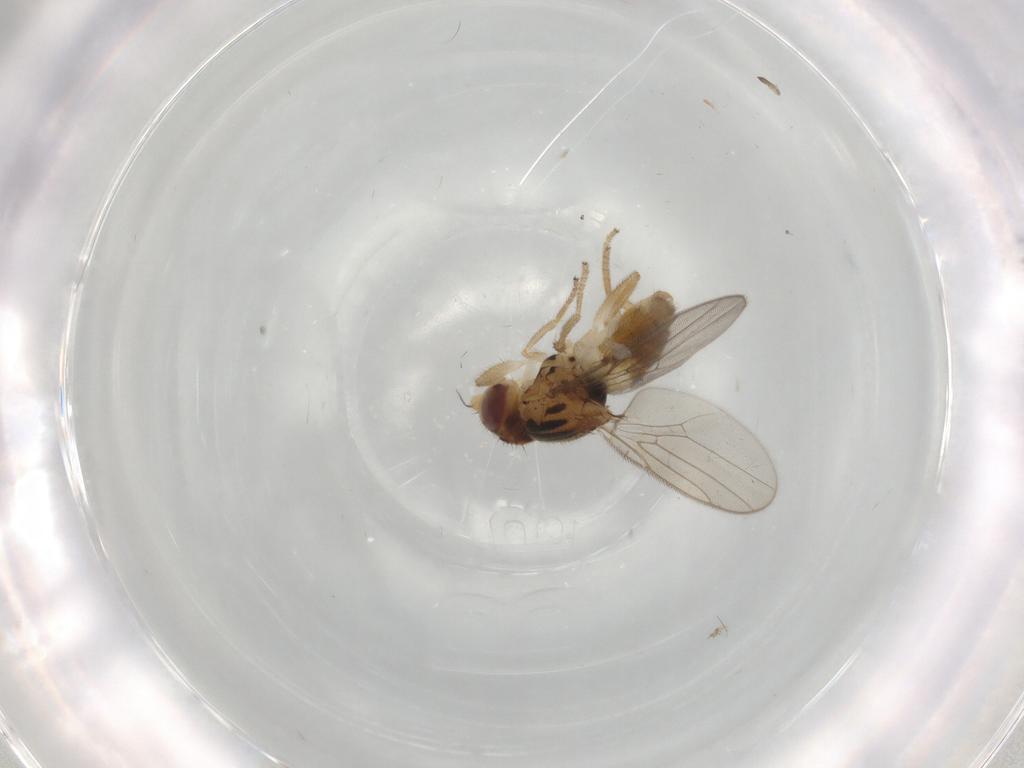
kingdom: Animalia
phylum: Arthropoda
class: Insecta
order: Diptera
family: Chloropidae
